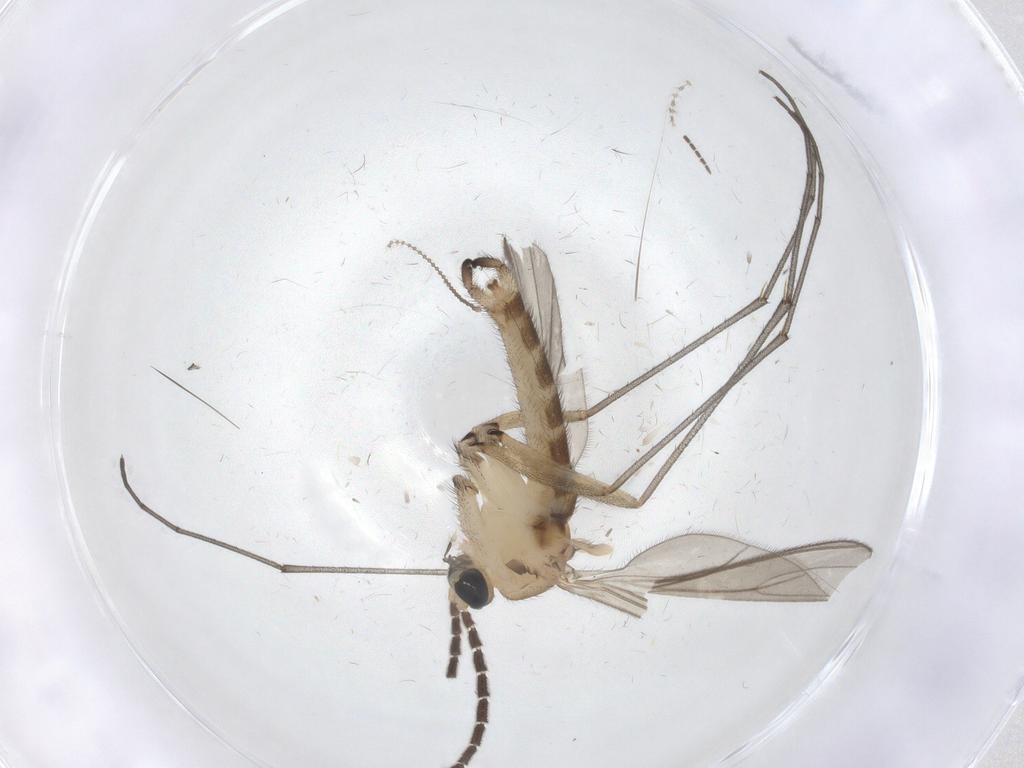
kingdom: Animalia
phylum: Arthropoda
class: Insecta
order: Diptera
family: Sciaridae
